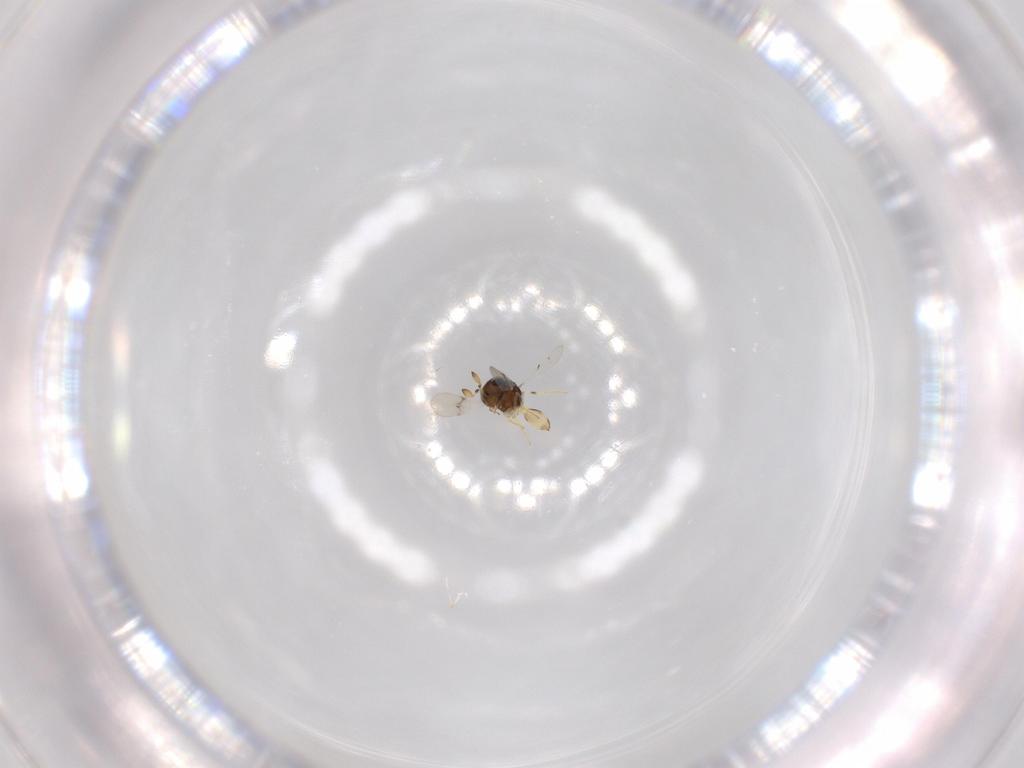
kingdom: Animalia
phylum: Arthropoda
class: Insecta
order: Hymenoptera
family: Scelionidae
